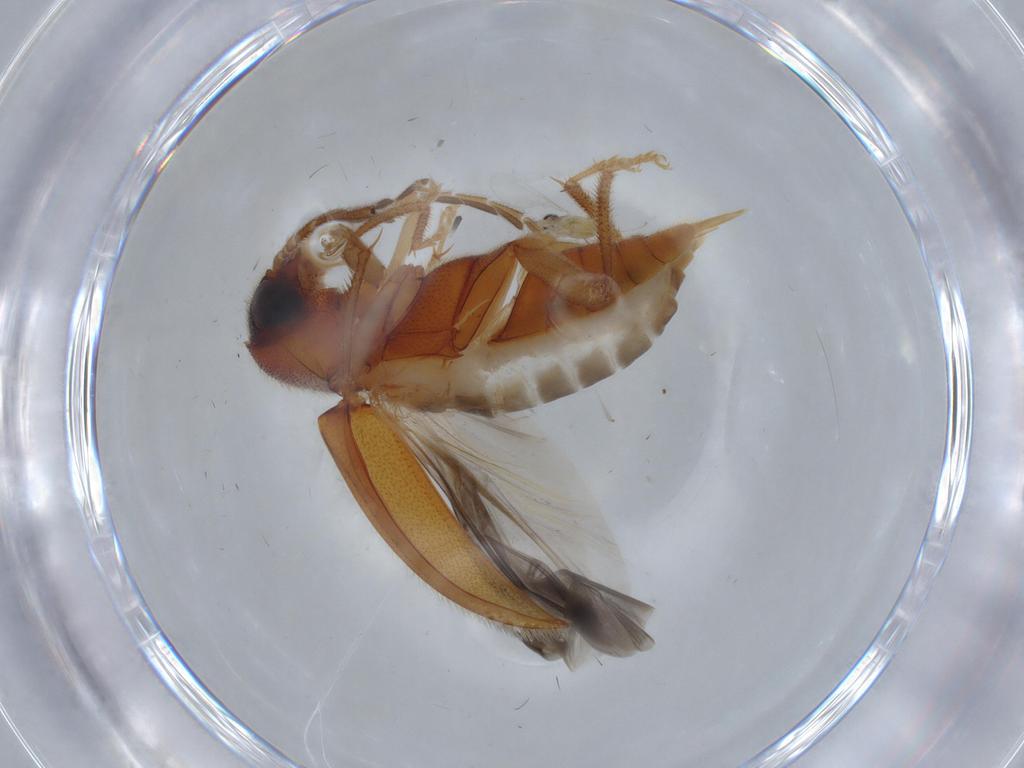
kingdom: Animalia
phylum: Arthropoda
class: Insecta
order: Coleoptera
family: Ptilodactylidae
